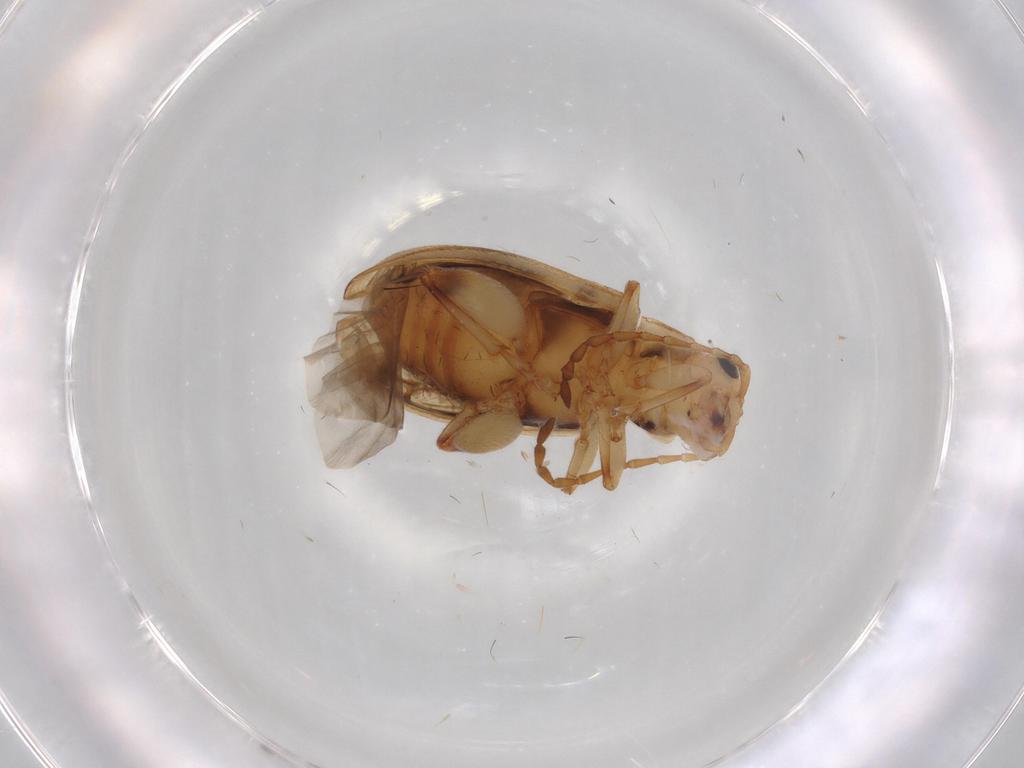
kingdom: Animalia
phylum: Arthropoda
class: Insecta
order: Coleoptera
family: Chrysomelidae
